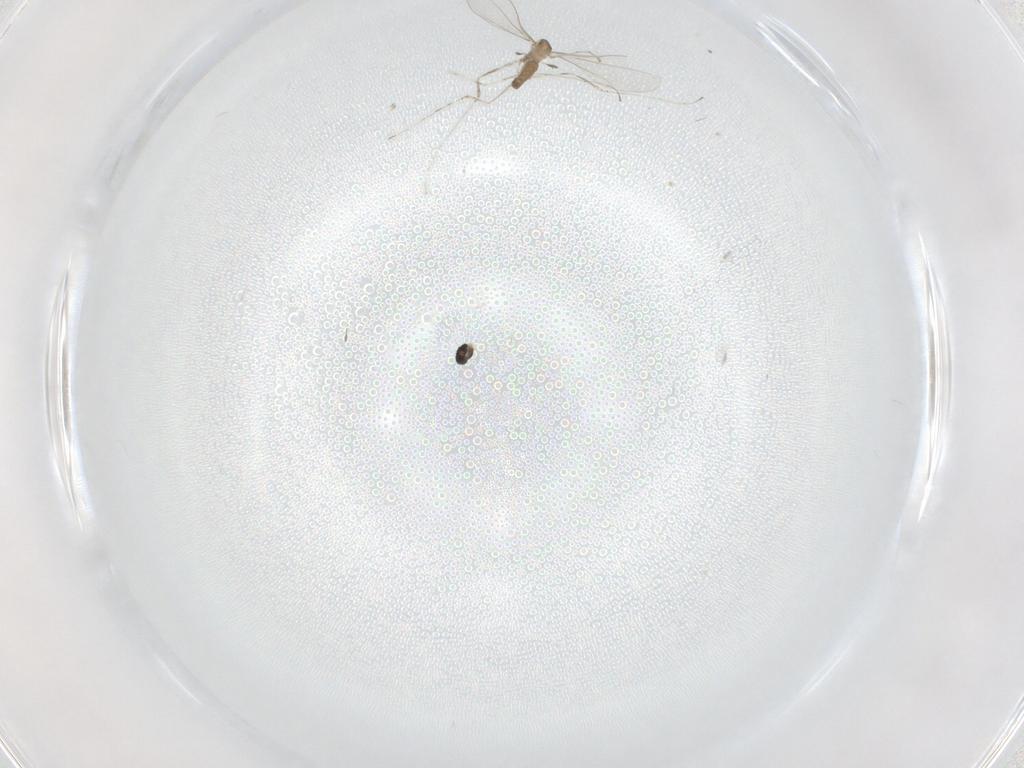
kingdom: Animalia
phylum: Arthropoda
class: Insecta
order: Diptera
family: Cecidomyiidae
